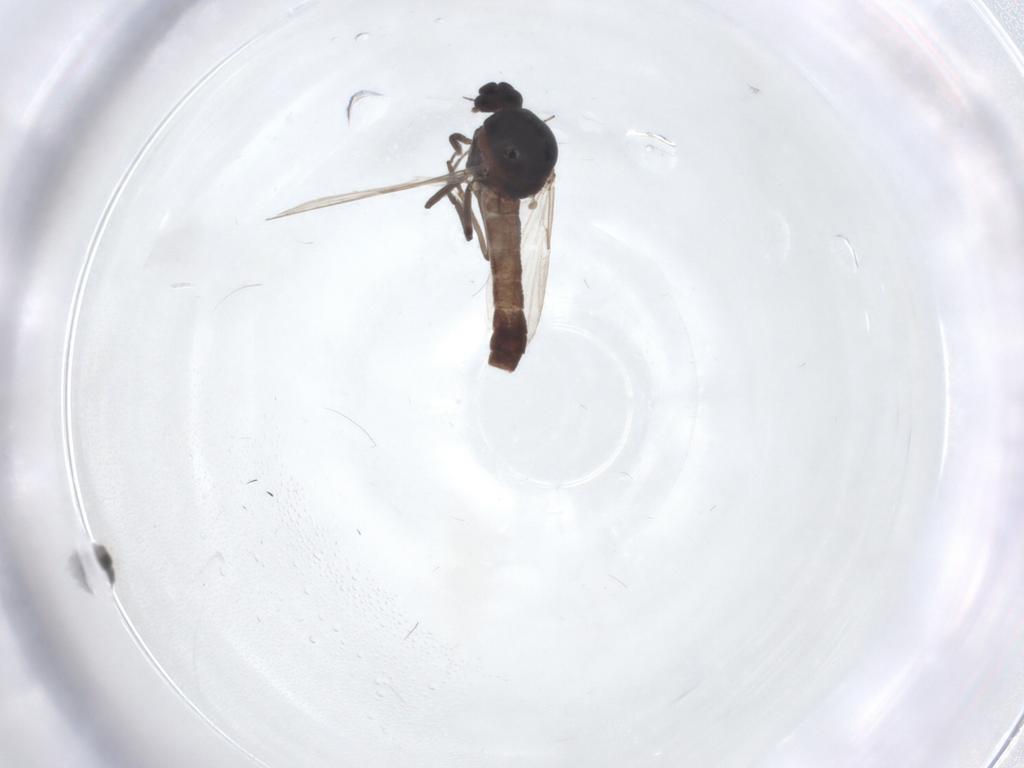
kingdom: Animalia
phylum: Arthropoda
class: Insecta
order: Diptera
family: Ceratopogonidae
